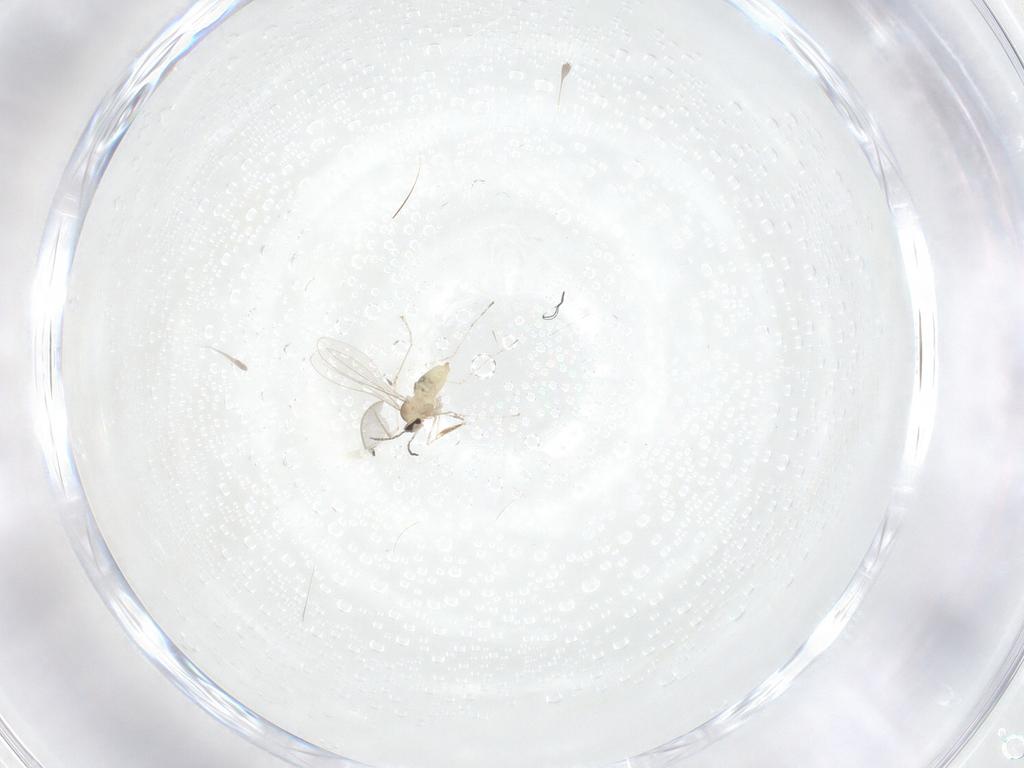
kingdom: Animalia
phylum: Arthropoda
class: Insecta
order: Diptera
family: Cecidomyiidae
